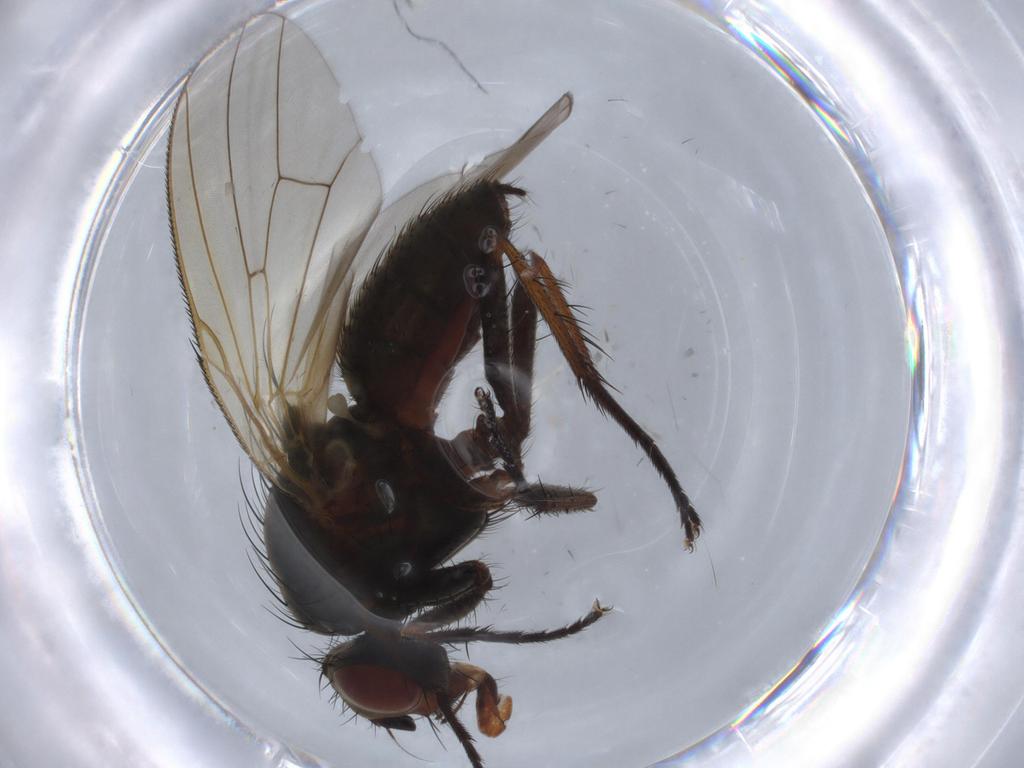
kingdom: Animalia
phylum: Arthropoda
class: Insecta
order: Diptera
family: Anthomyiidae
